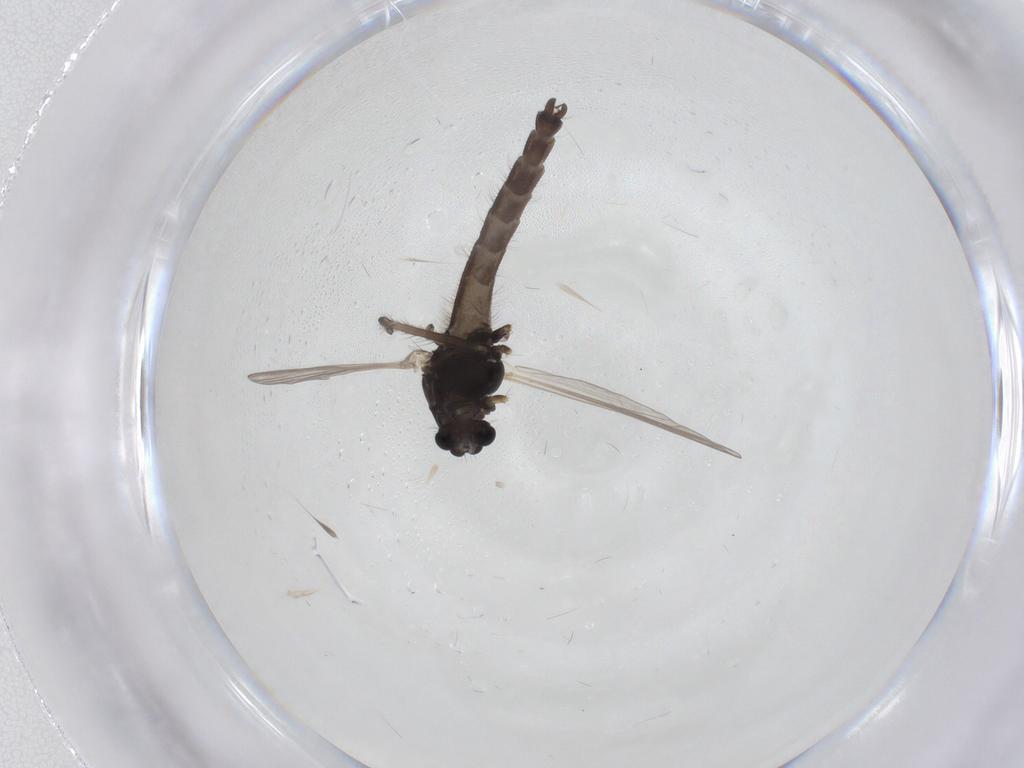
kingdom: Animalia
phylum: Arthropoda
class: Insecta
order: Diptera
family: Chironomidae
